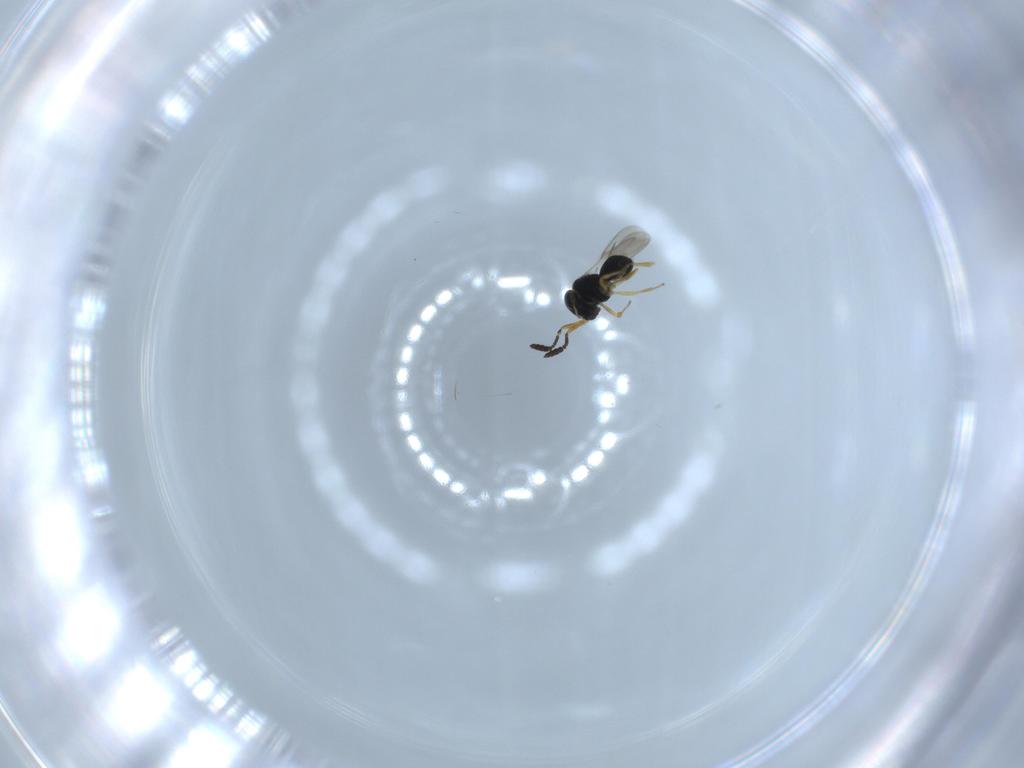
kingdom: Animalia
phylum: Arthropoda
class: Insecta
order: Hymenoptera
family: Scelionidae
